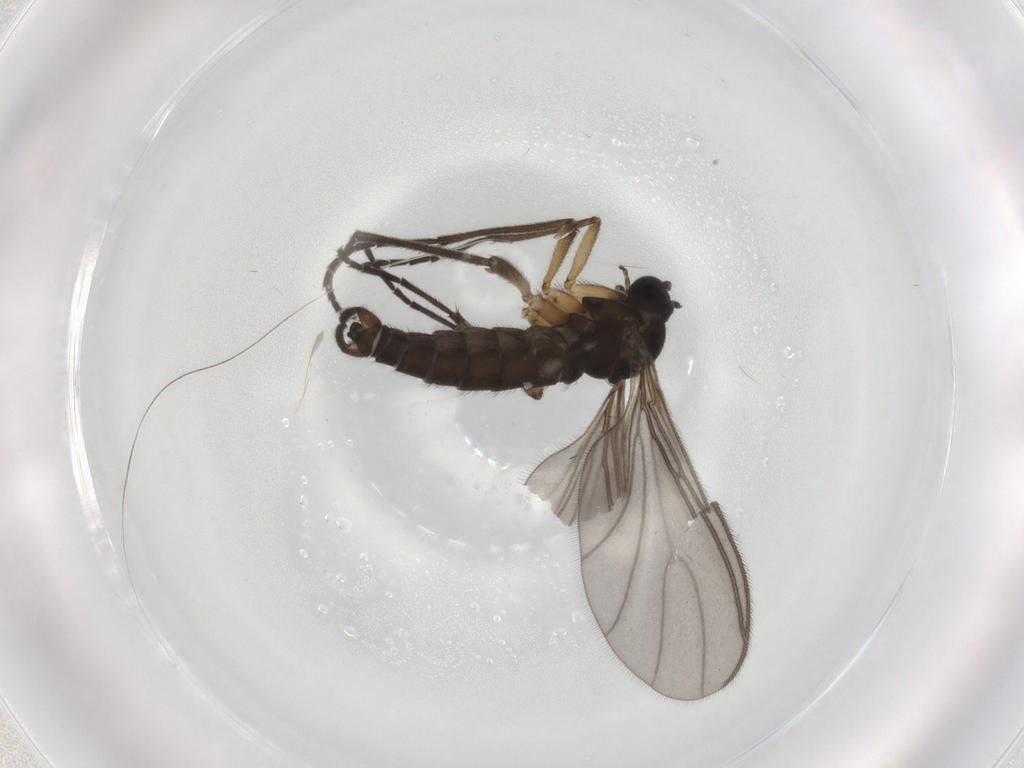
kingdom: Animalia
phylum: Arthropoda
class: Insecta
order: Diptera
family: Sciaridae
